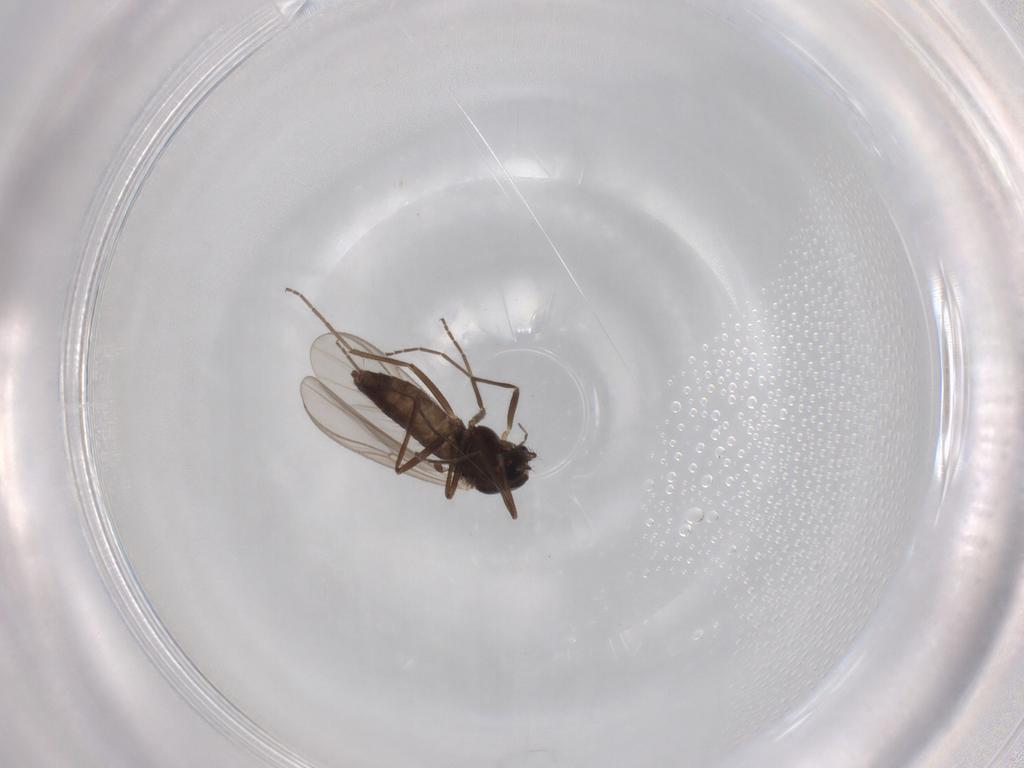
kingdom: Animalia
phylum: Arthropoda
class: Insecta
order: Diptera
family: Chironomidae
